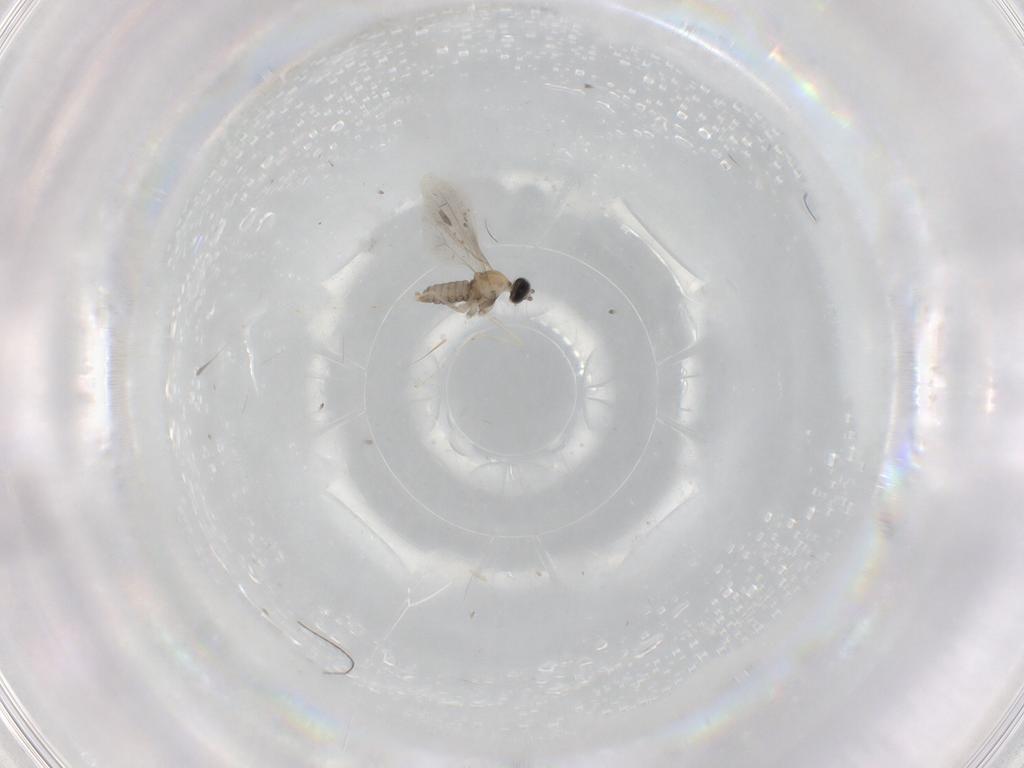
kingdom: Animalia
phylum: Arthropoda
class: Insecta
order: Diptera
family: Cecidomyiidae
